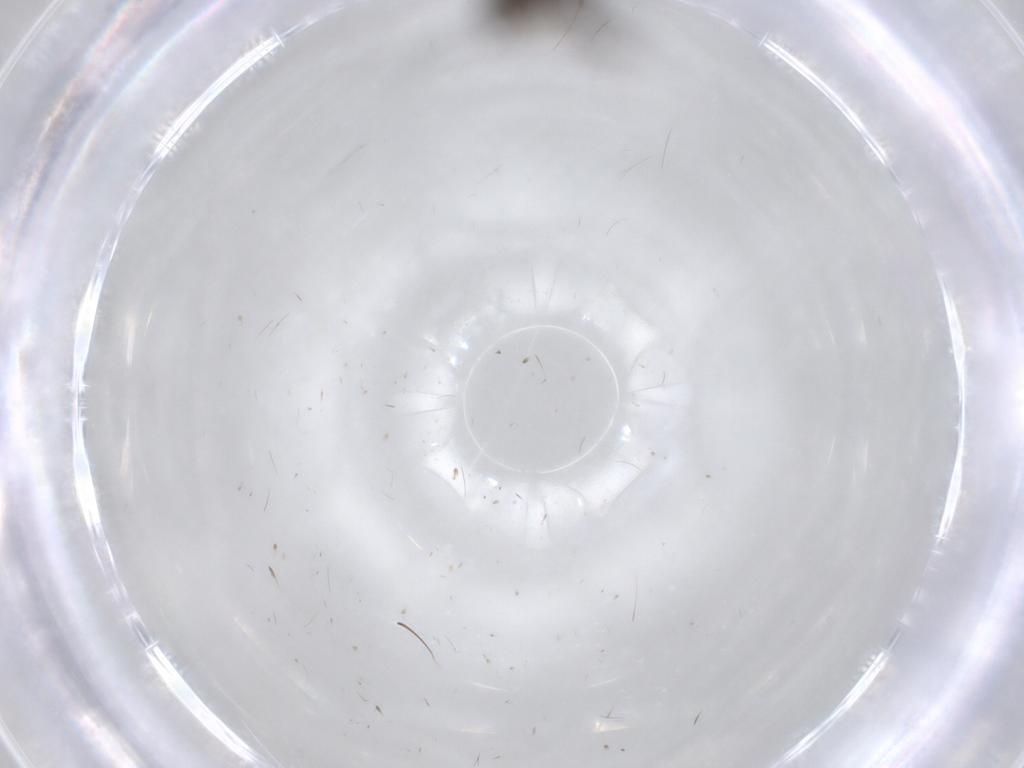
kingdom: Animalia
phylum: Arthropoda
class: Insecta
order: Diptera
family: Chironomidae
